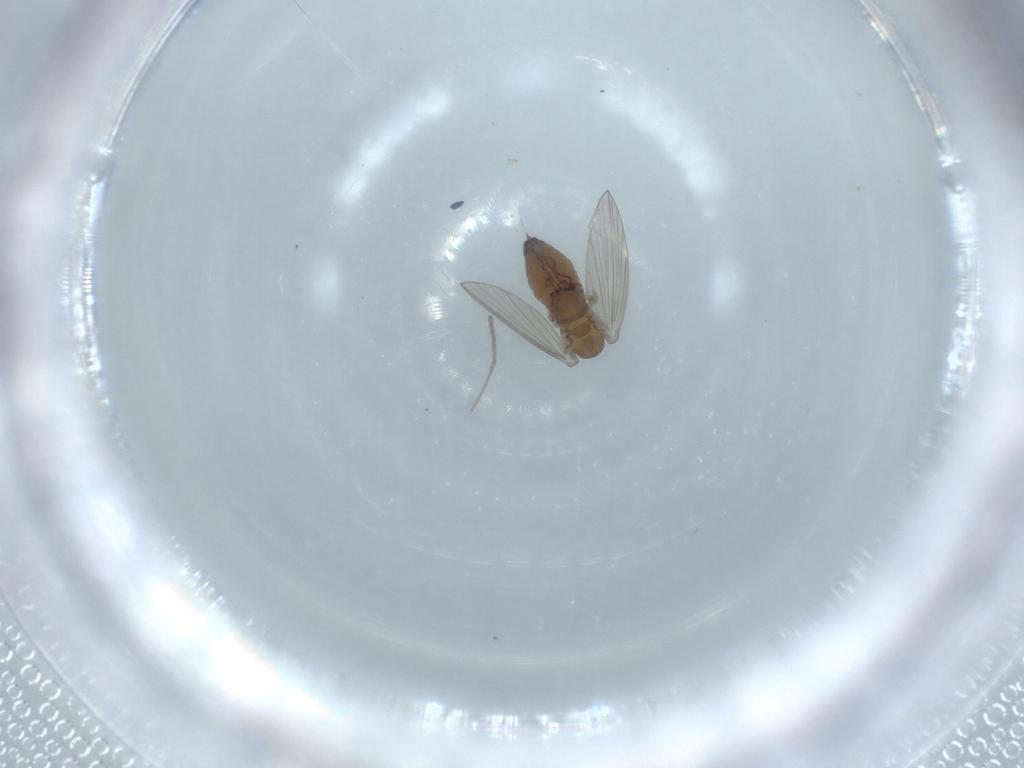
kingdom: Animalia
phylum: Arthropoda
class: Insecta
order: Diptera
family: Psychodidae
